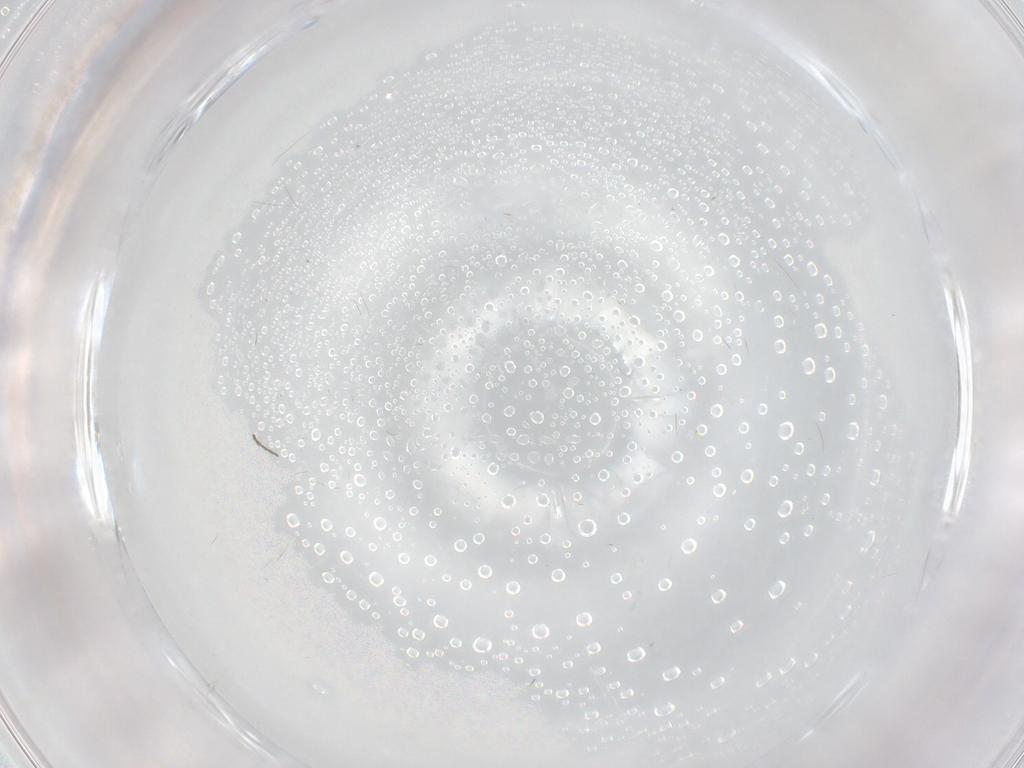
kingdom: Animalia
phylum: Arthropoda
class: Insecta
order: Diptera
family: Cecidomyiidae
